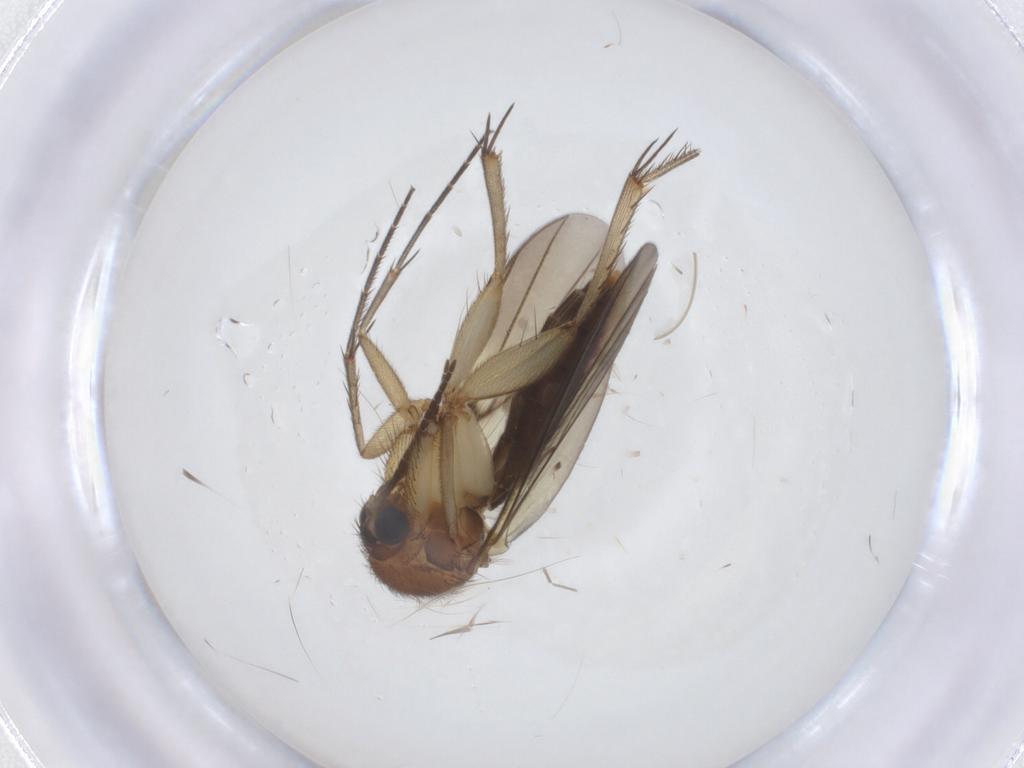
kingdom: Animalia
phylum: Arthropoda
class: Insecta
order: Diptera
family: Mycetophilidae
